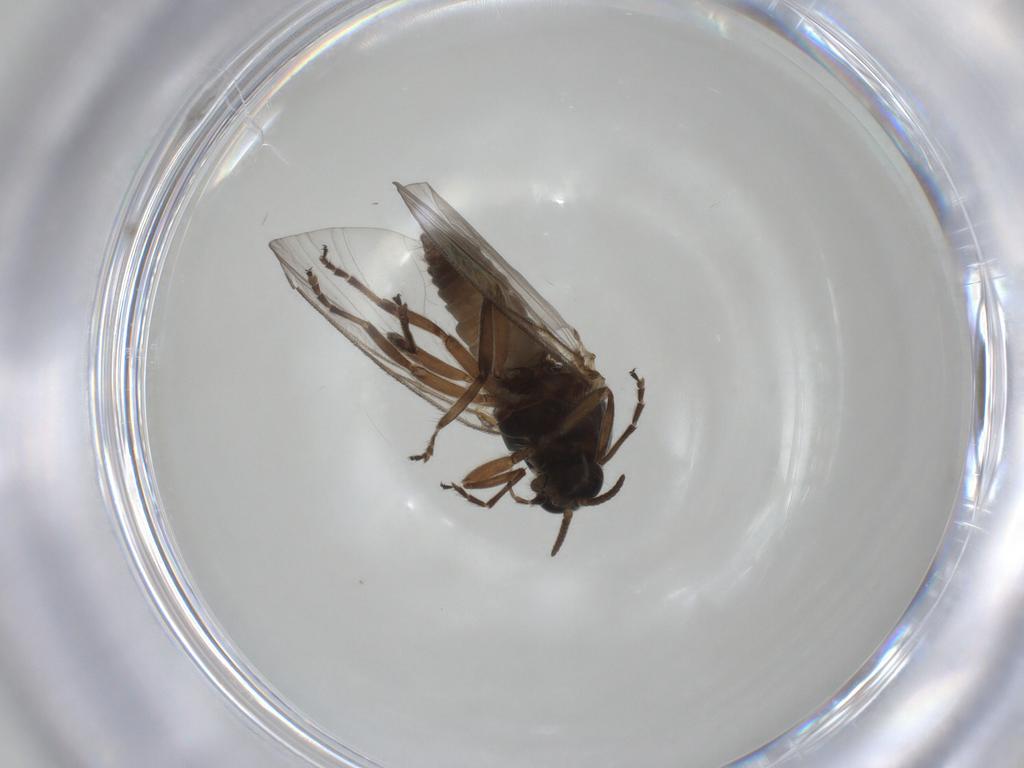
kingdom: Animalia
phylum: Arthropoda
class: Insecta
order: Diptera
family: Simuliidae
